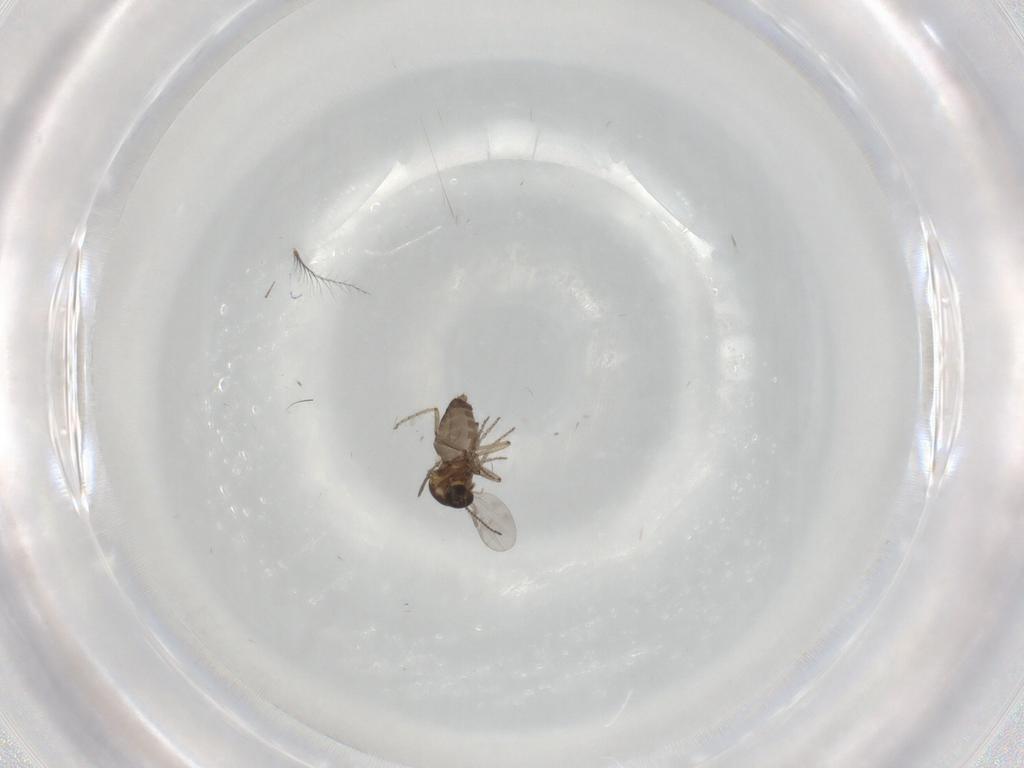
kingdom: Animalia
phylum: Arthropoda
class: Insecta
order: Diptera
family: Ceratopogonidae
